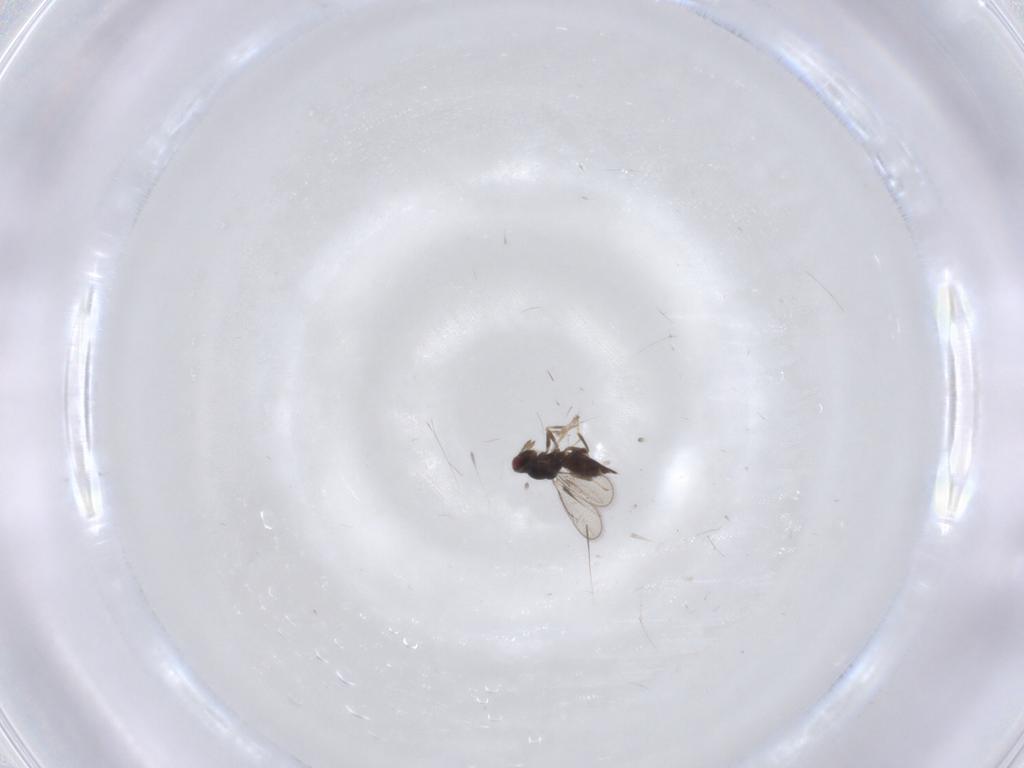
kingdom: Animalia
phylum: Arthropoda
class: Insecta
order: Hymenoptera
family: Eulophidae
